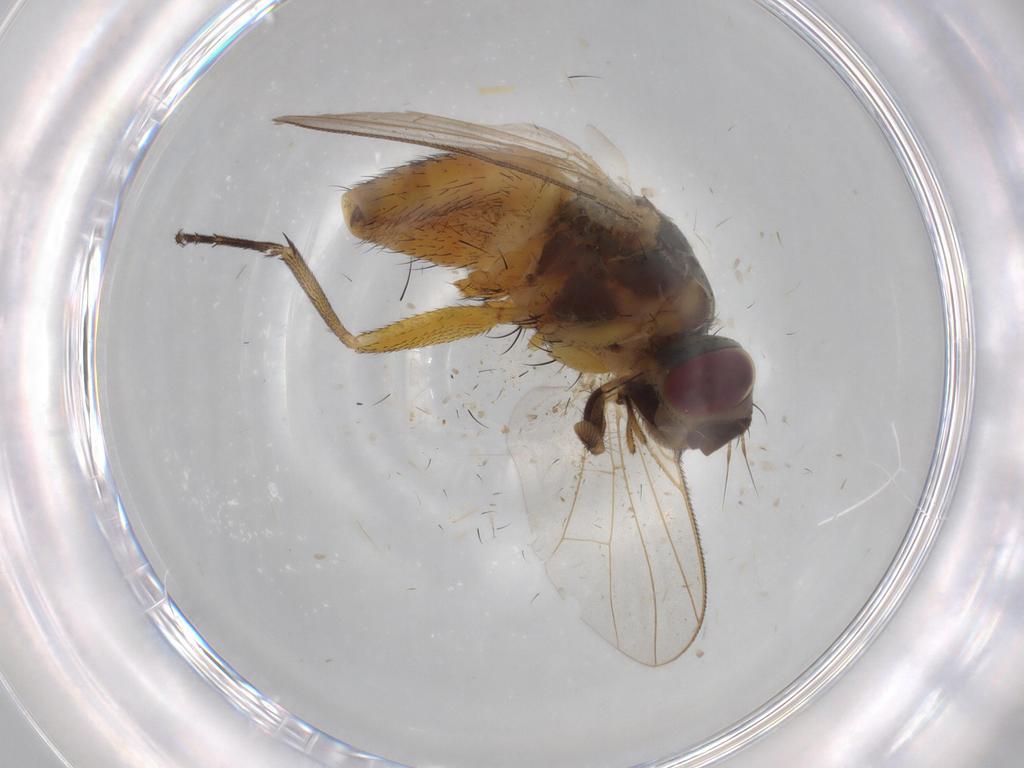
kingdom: Animalia
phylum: Arthropoda
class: Insecta
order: Diptera
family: Muscidae
